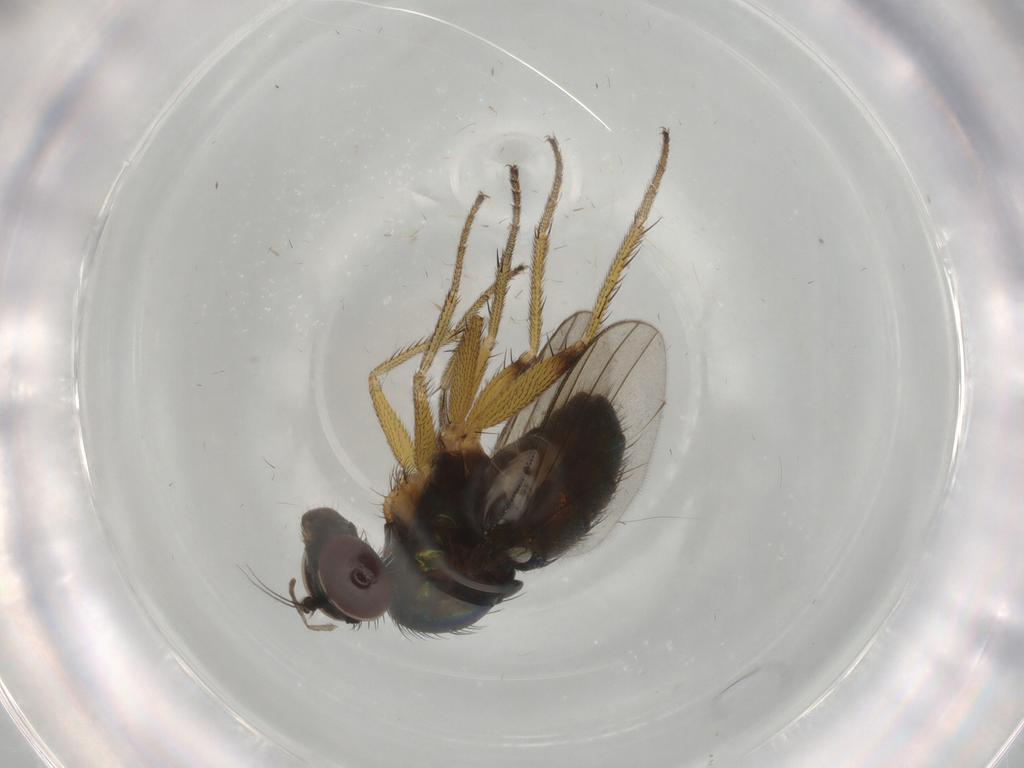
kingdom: Animalia
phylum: Arthropoda
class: Insecta
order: Diptera
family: Dolichopodidae
